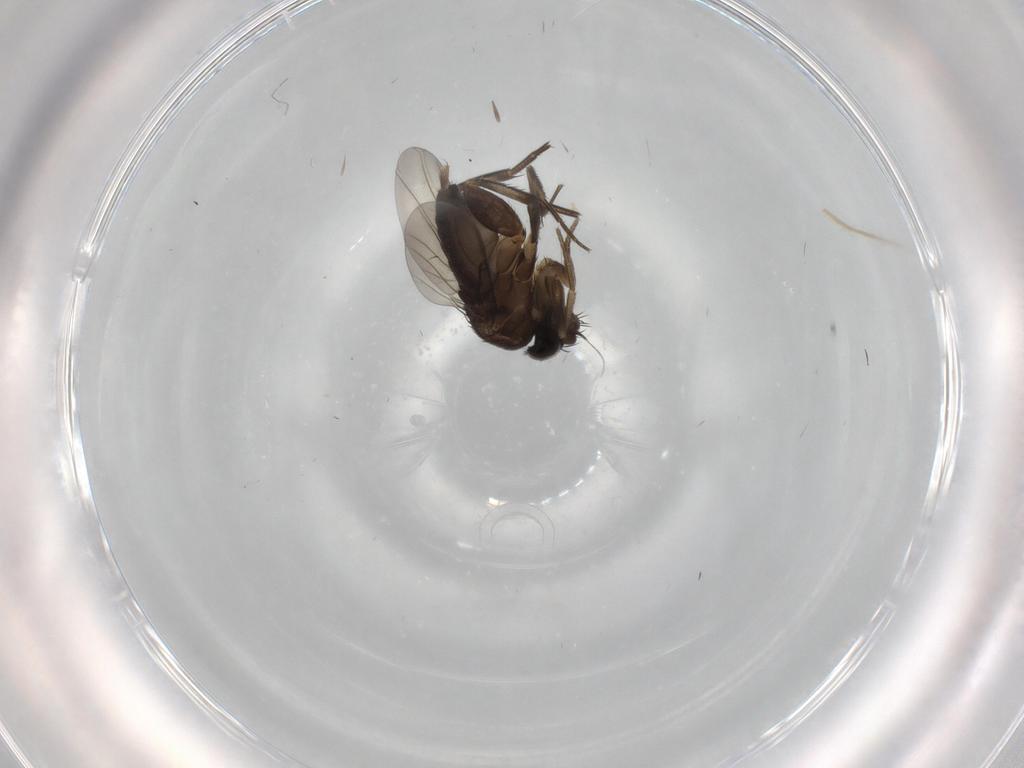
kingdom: Animalia
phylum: Arthropoda
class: Insecta
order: Diptera
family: Phoridae
